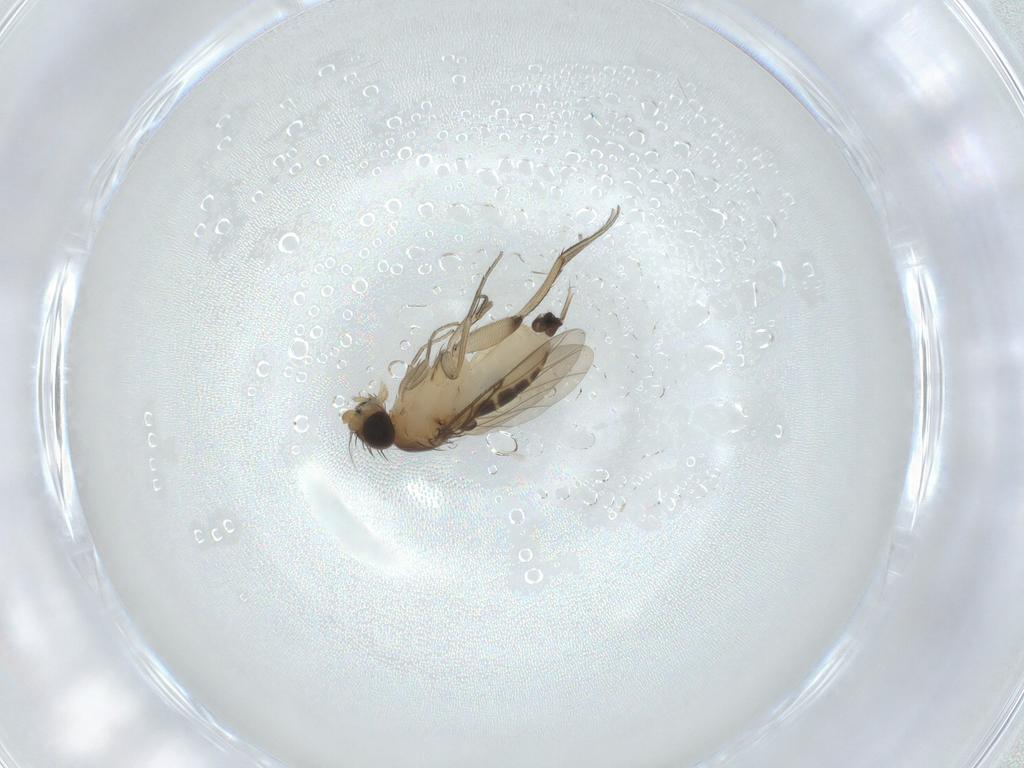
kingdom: Animalia
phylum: Arthropoda
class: Insecta
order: Diptera
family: Phoridae
